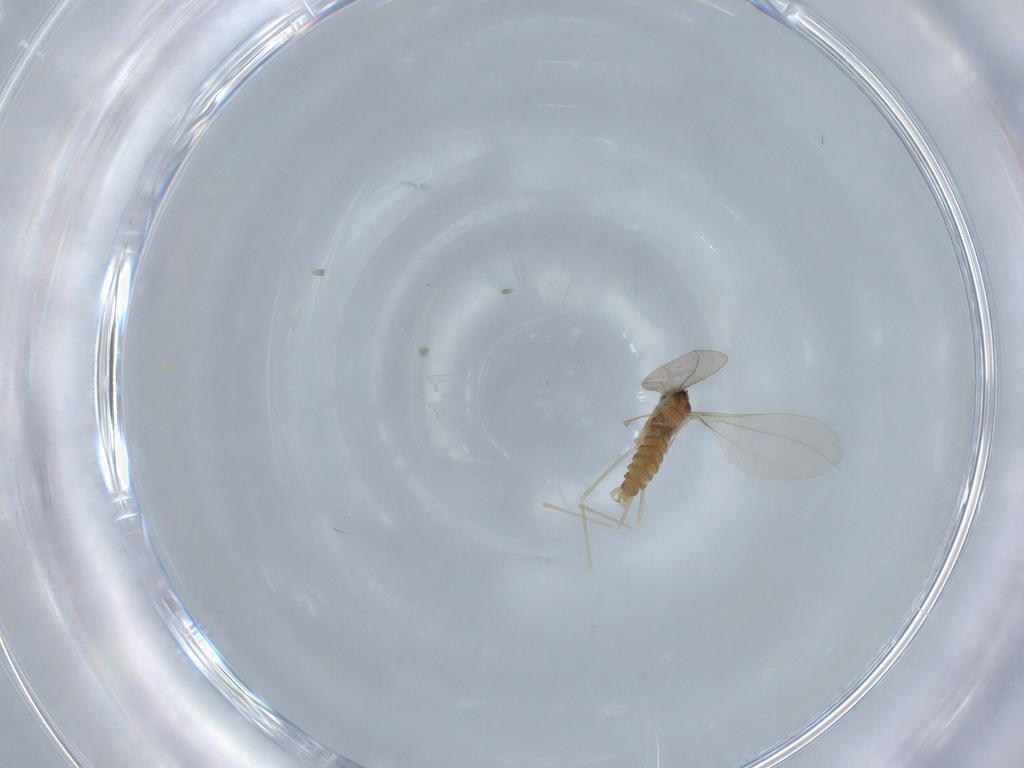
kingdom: Animalia
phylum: Arthropoda
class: Insecta
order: Diptera
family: Cecidomyiidae
